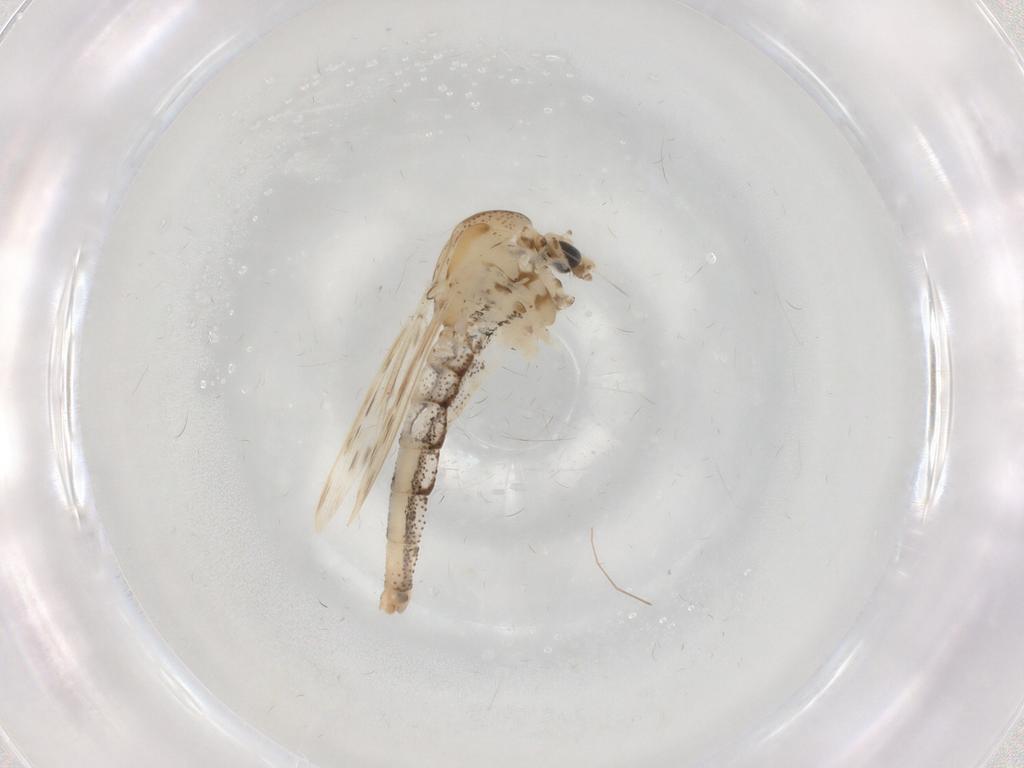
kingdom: Animalia
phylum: Arthropoda
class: Insecta
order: Diptera
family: Chaoboridae
